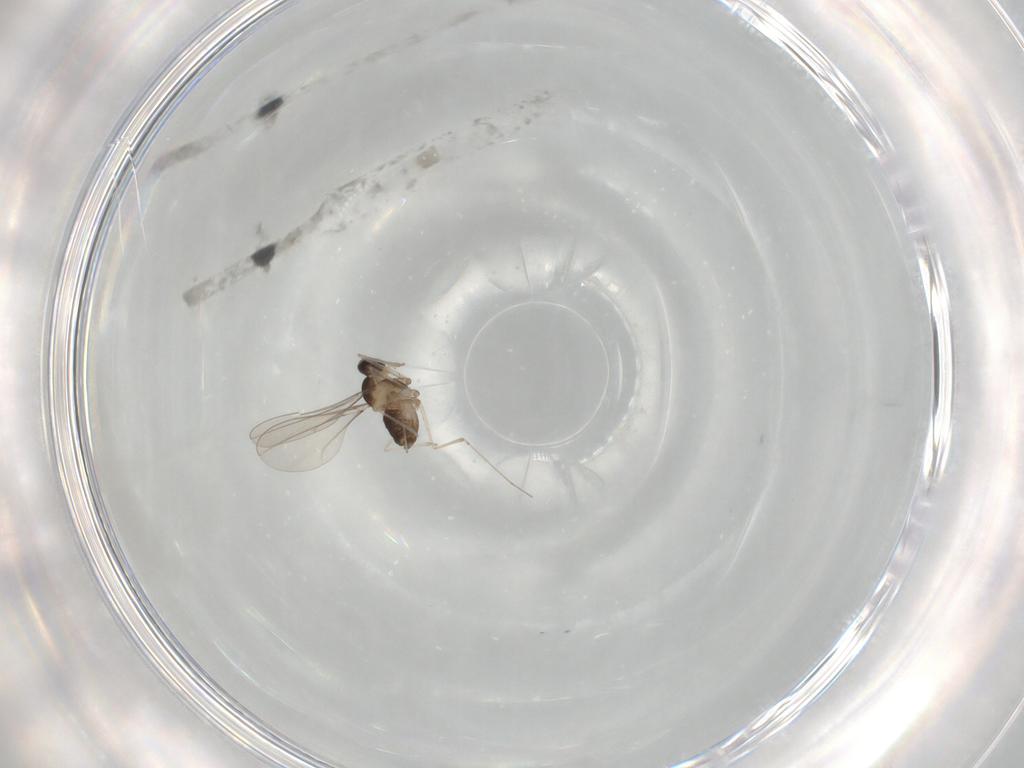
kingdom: Animalia
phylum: Arthropoda
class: Insecta
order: Diptera
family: Cecidomyiidae
